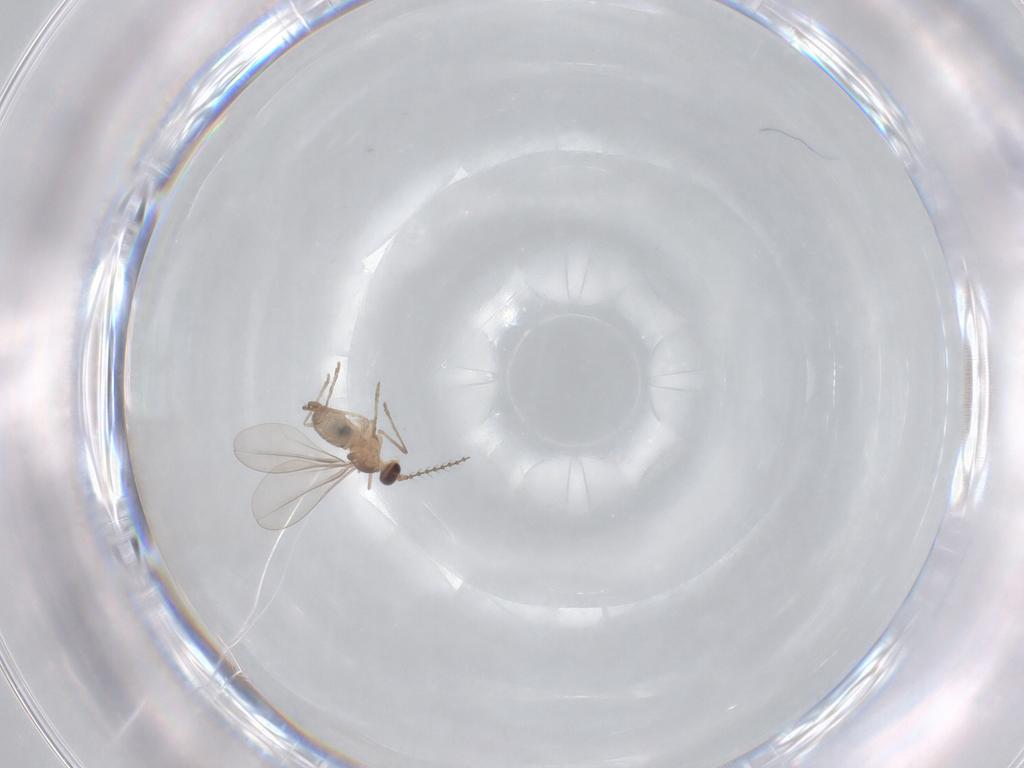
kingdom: Animalia
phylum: Arthropoda
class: Insecta
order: Diptera
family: Cecidomyiidae
